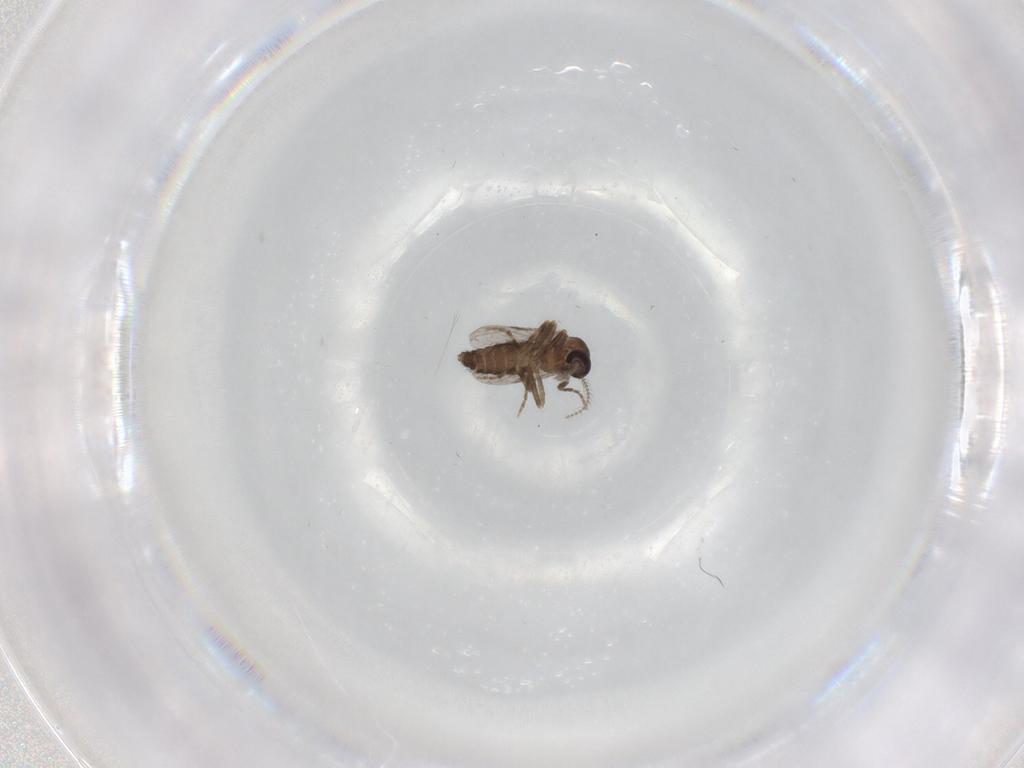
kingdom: Animalia
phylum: Arthropoda
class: Insecta
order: Diptera
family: Ceratopogonidae
